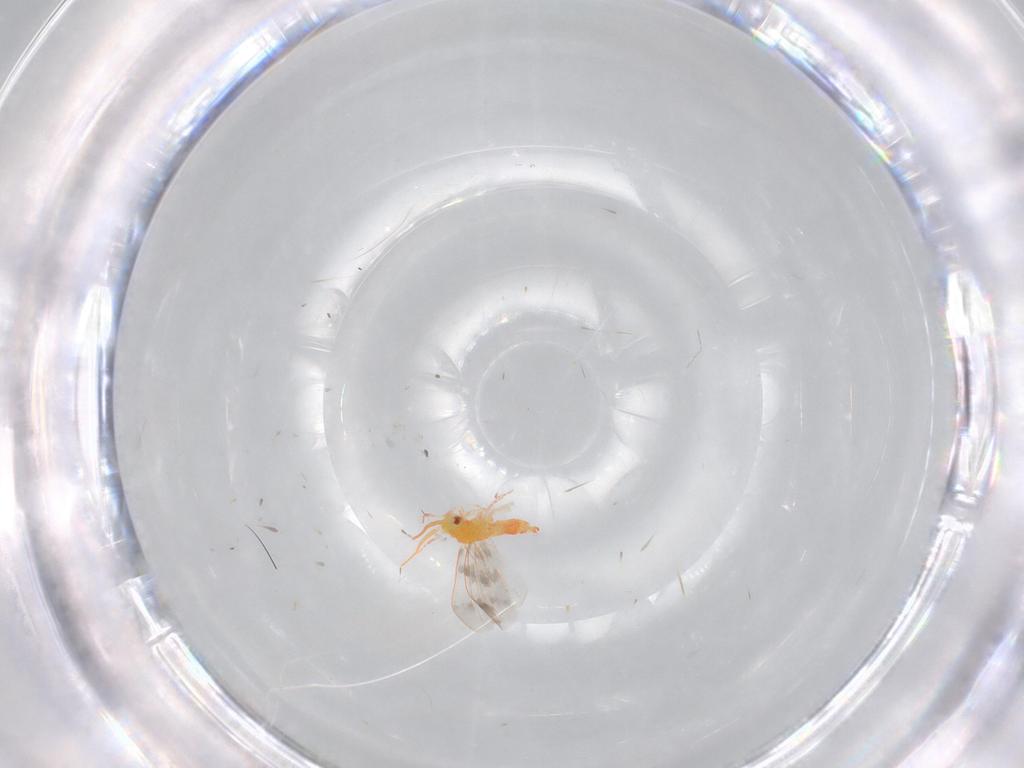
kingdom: Animalia
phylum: Arthropoda
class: Insecta
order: Hemiptera
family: Aleyrodidae
